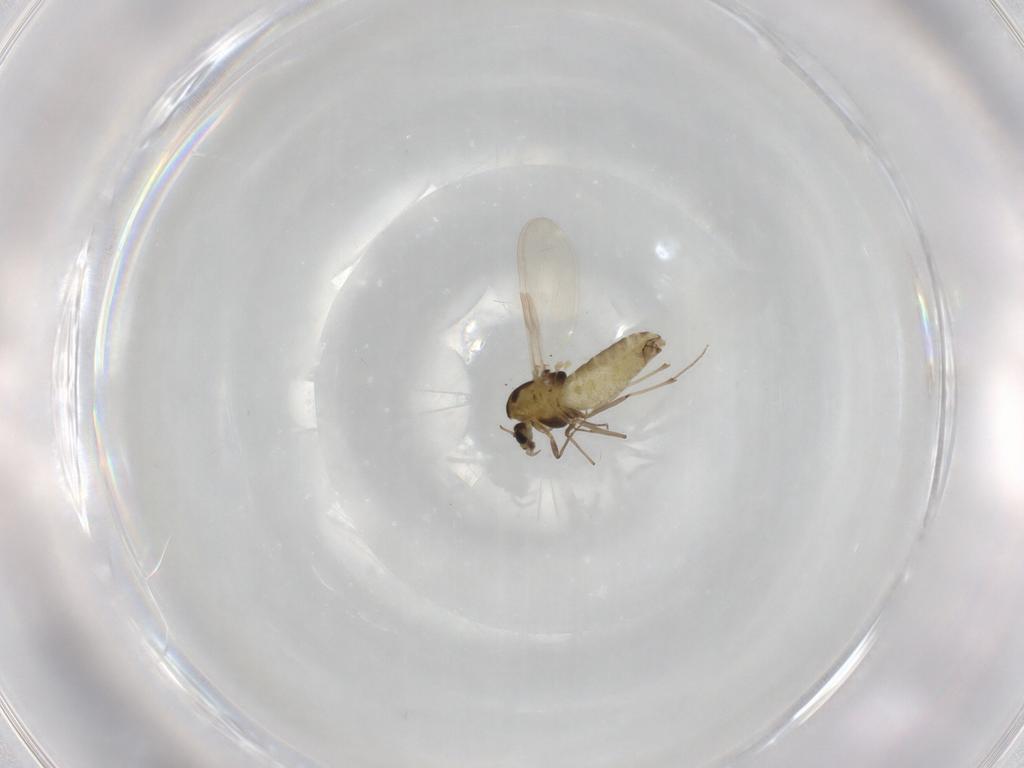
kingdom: Animalia
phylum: Arthropoda
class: Insecta
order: Diptera
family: Chironomidae
